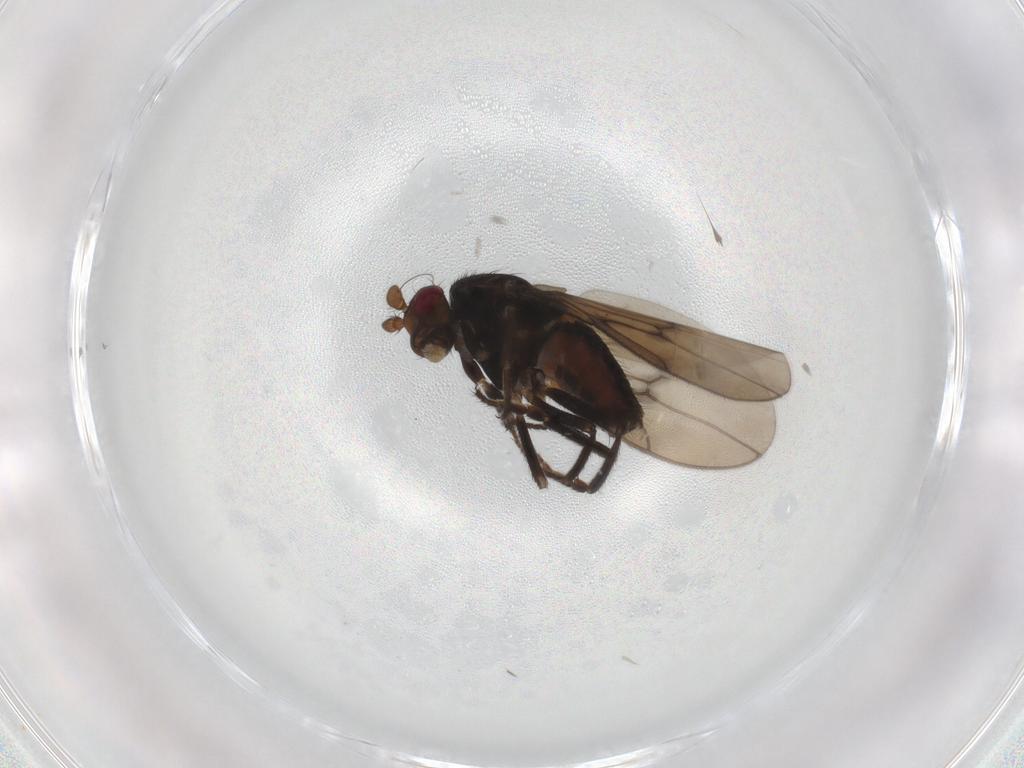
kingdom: Animalia
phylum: Arthropoda
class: Insecta
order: Diptera
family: Sphaeroceridae
